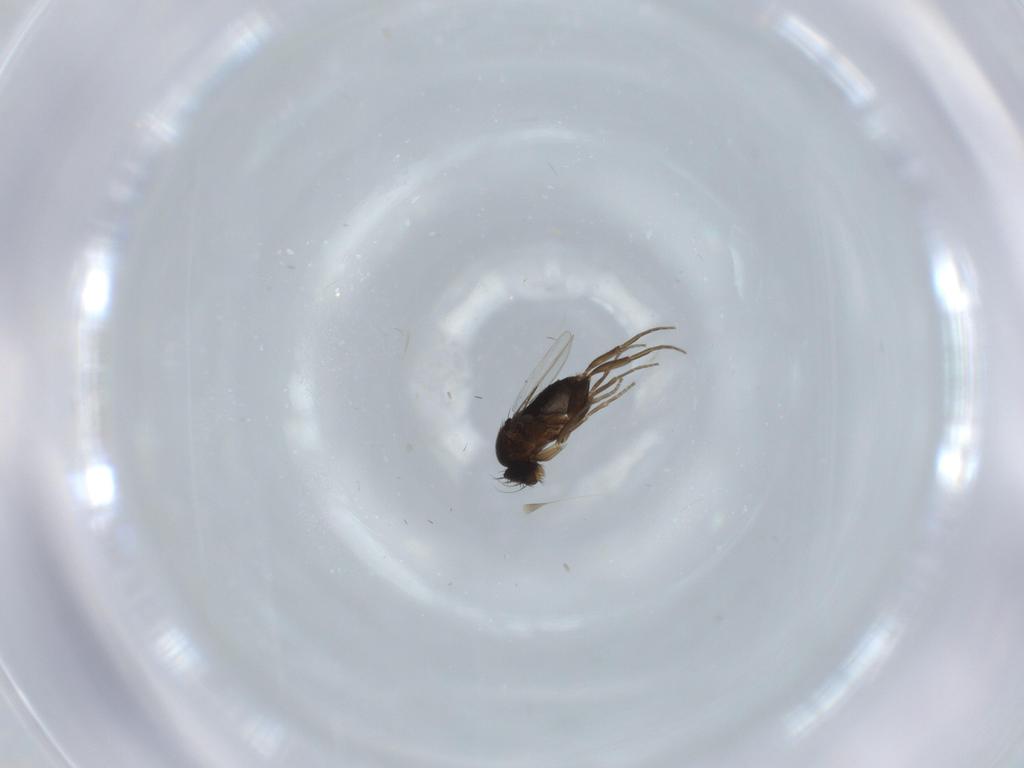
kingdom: Animalia
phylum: Arthropoda
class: Insecta
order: Diptera
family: Phoridae
